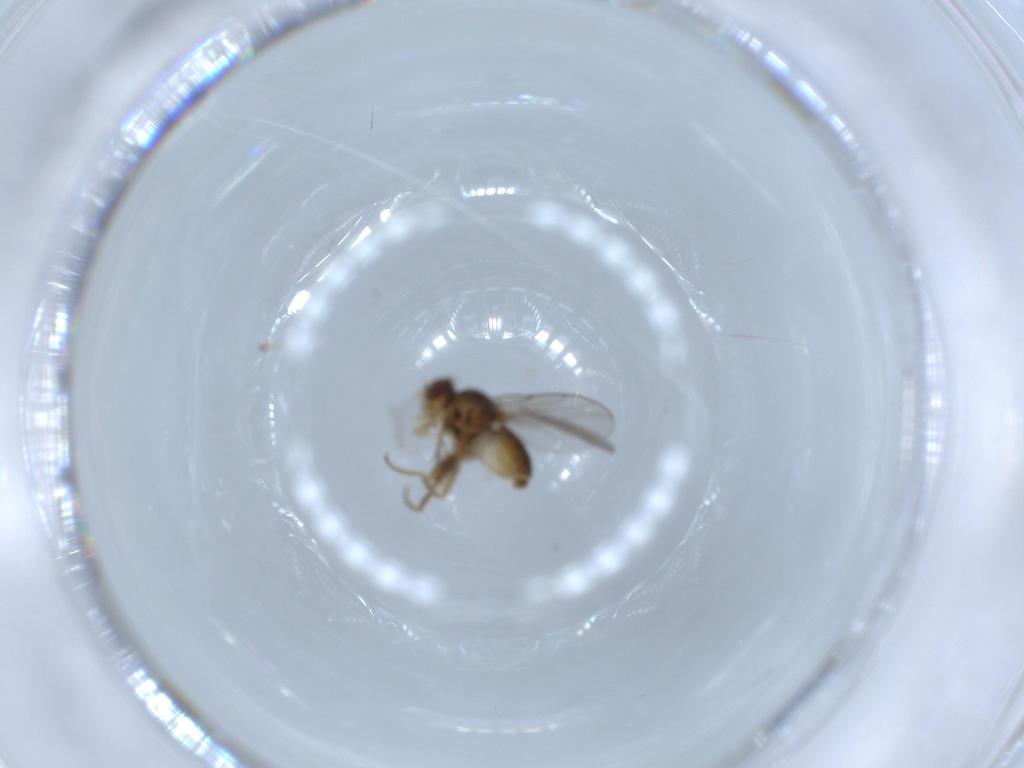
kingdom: Animalia
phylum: Arthropoda
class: Insecta
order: Diptera
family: Chloropidae
